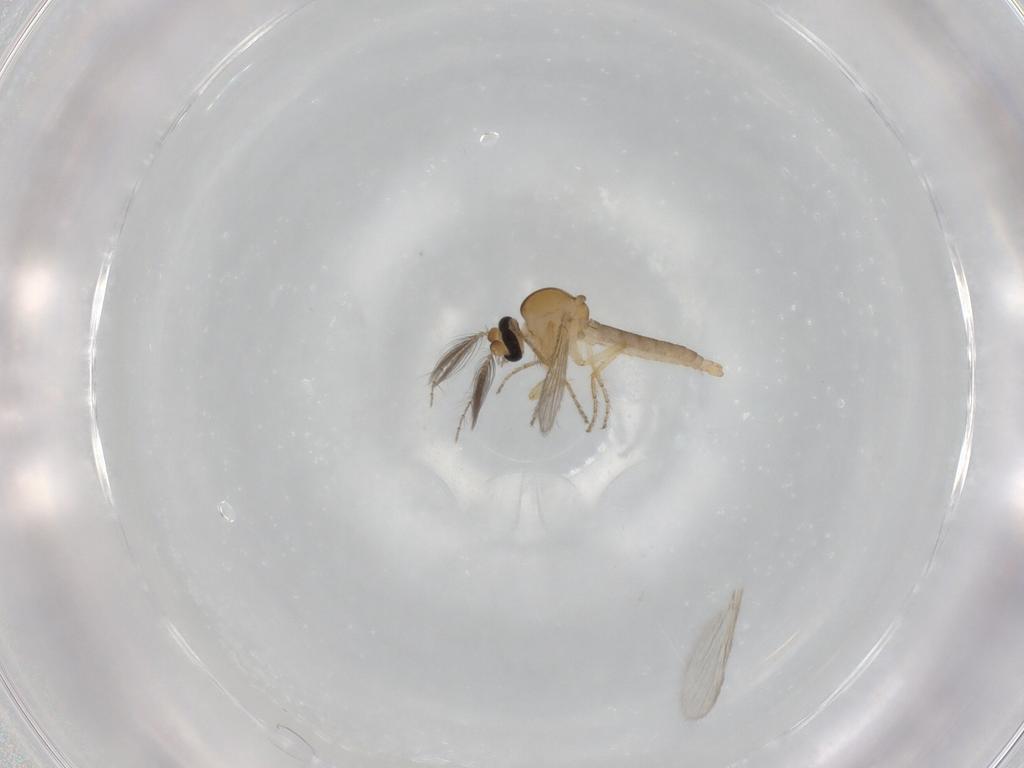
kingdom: Animalia
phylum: Arthropoda
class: Insecta
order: Diptera
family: Ceratopogonidae
